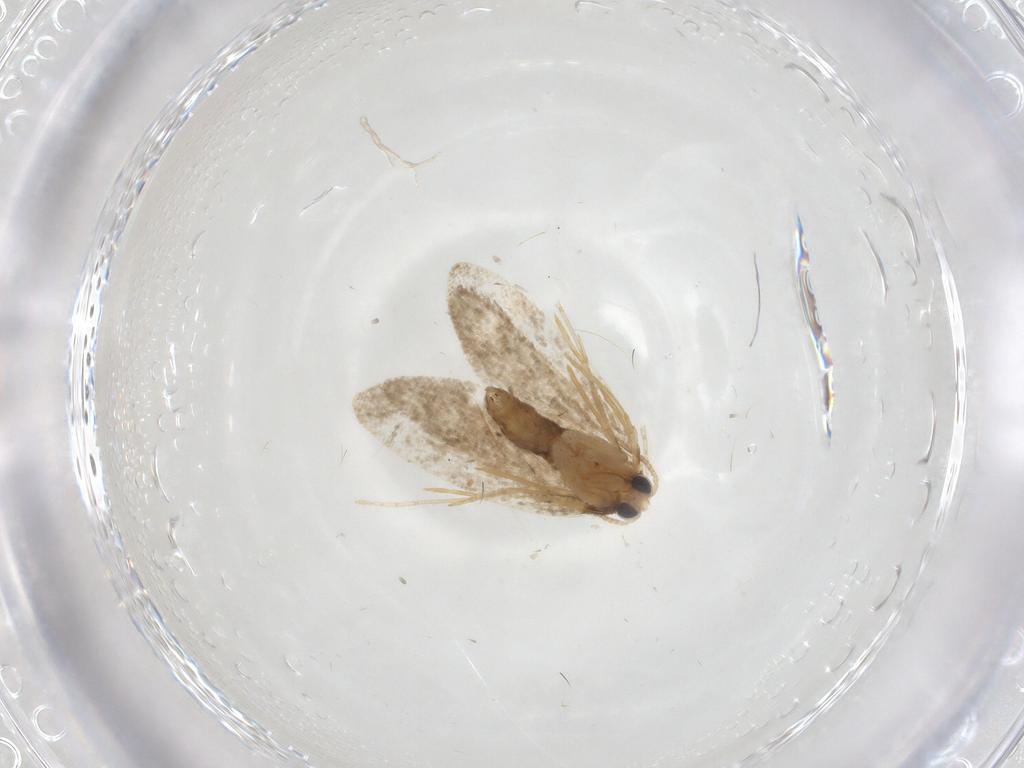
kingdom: Animalia
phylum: Arthropoda
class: Insecta
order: Lepidoptera
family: Psychidae
